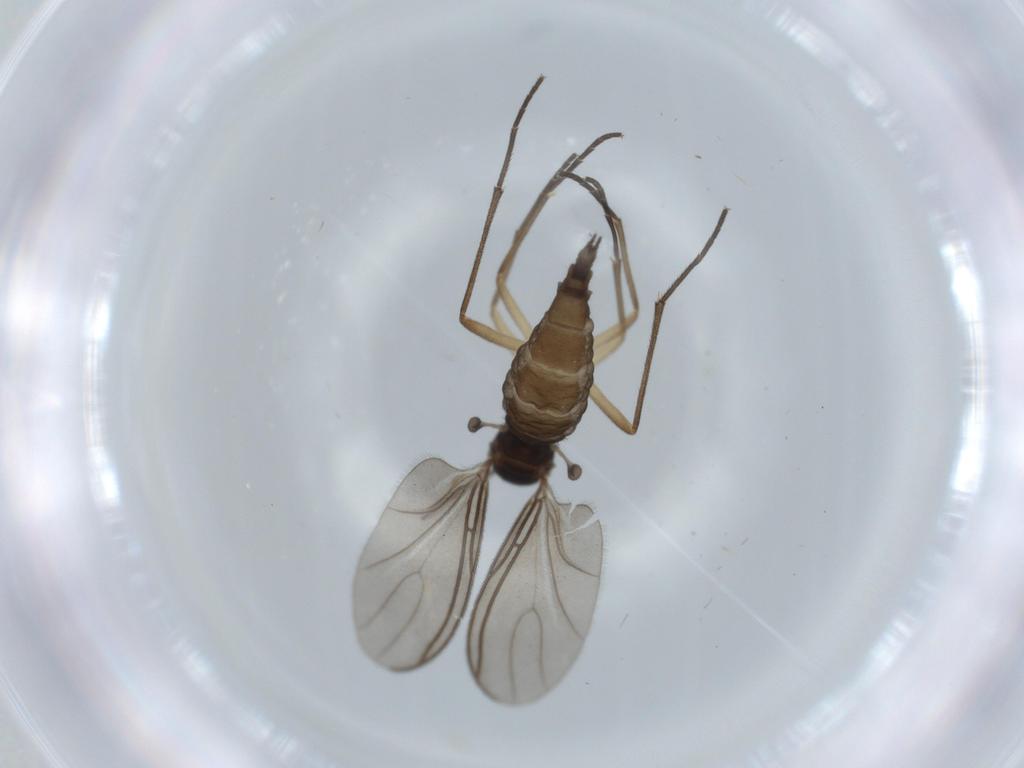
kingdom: Animalia
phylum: Arthropoda
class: Insecta
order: Diptera
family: Sciaridae
